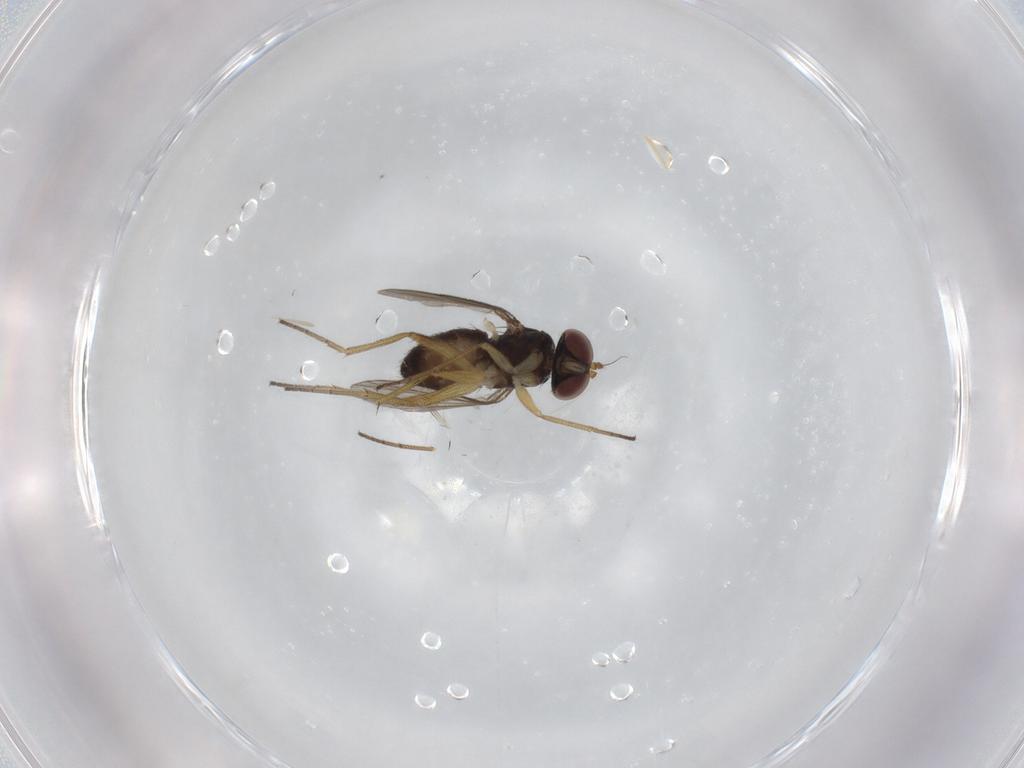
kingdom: Animalia
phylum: Arthropoda
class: Insecta
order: Diptera
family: Dolichopodidae
